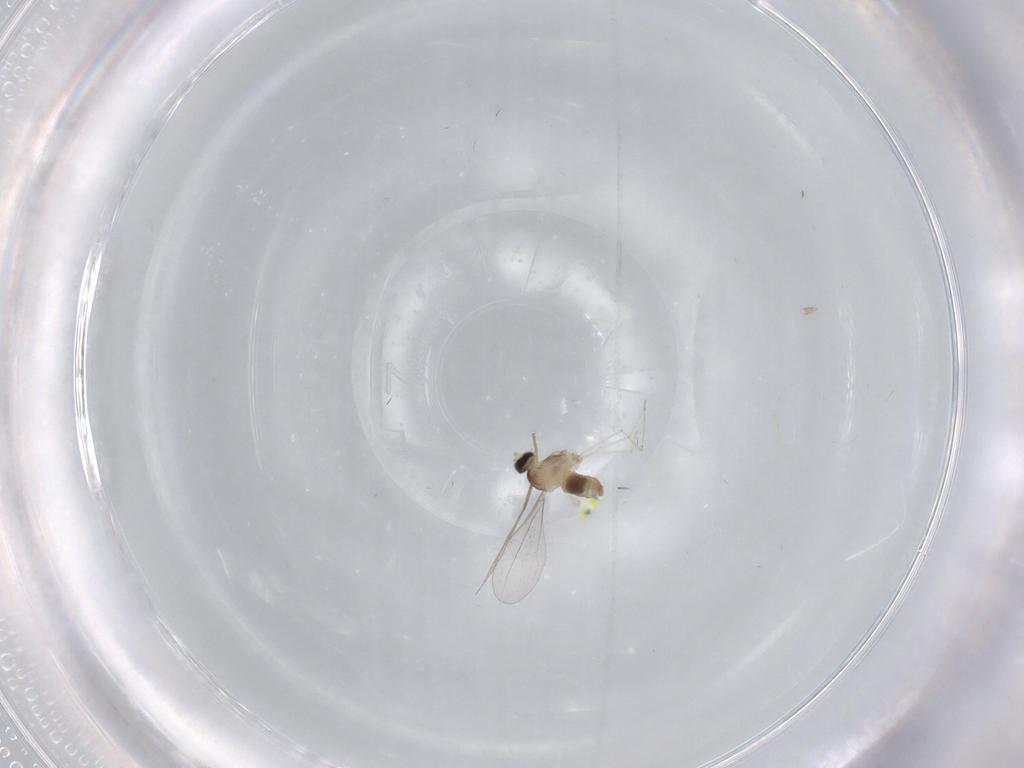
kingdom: Animalia
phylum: Arthropoda
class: Insecta
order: Diptera
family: Cecidomyiidae
